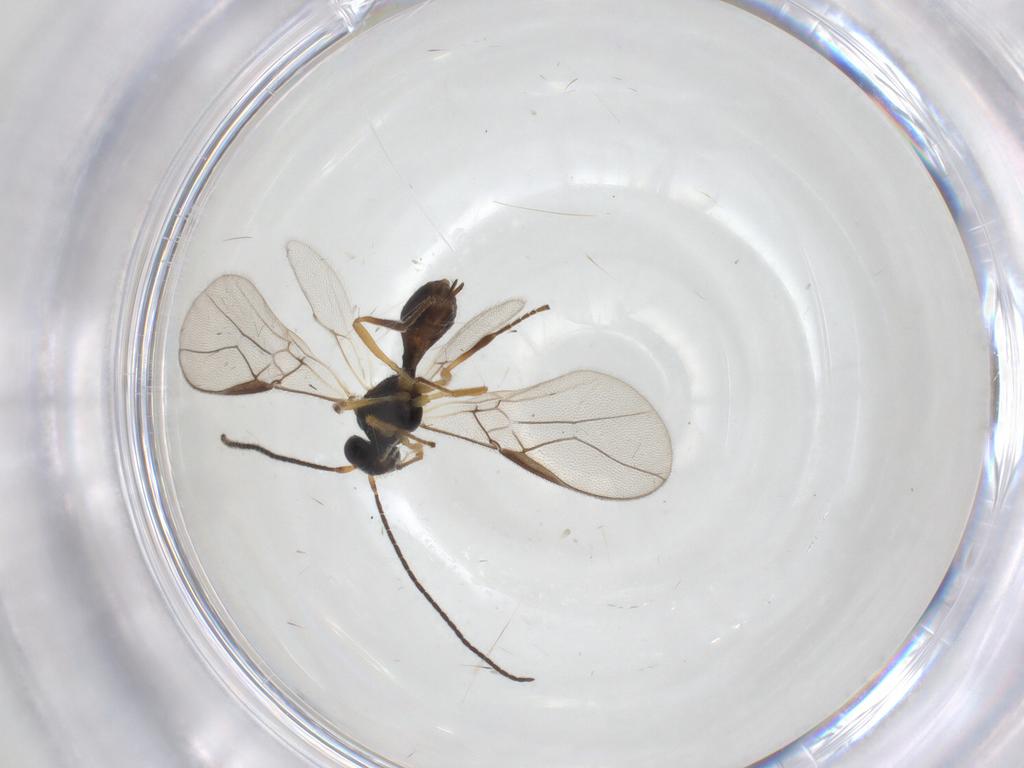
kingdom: Animalia
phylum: Arthropoda
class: Insecta
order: Hymenoptera
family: Braconidae
